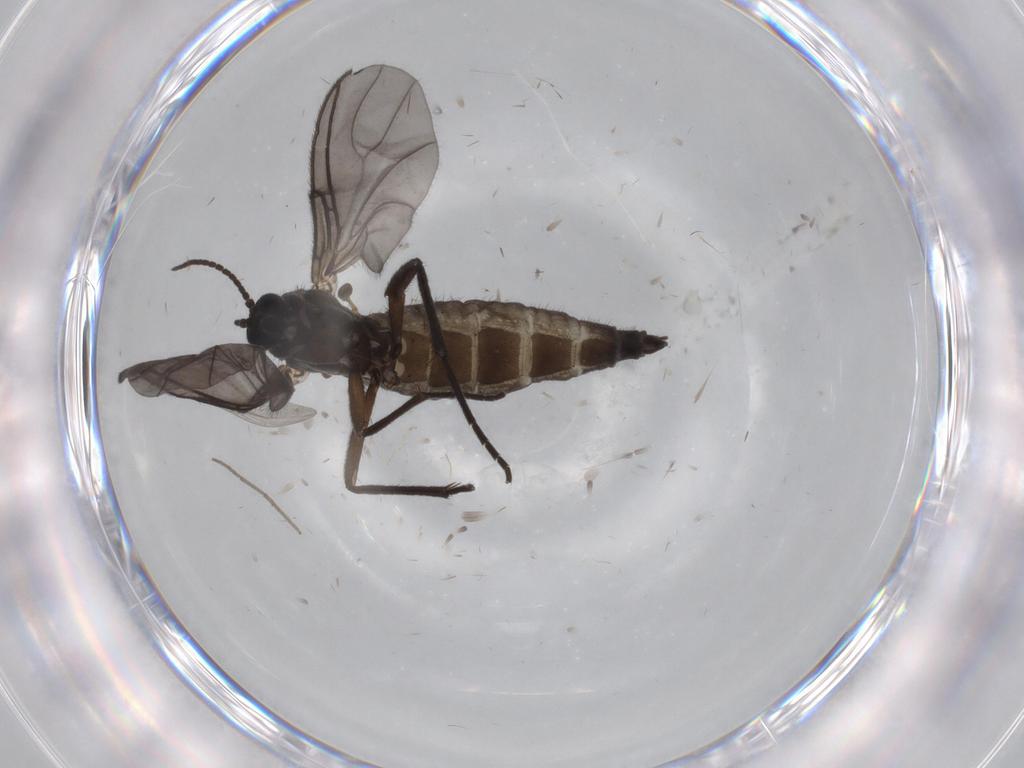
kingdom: Animalia
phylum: Arthropoda
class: Insecta
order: Diptera
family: Sciaridae
